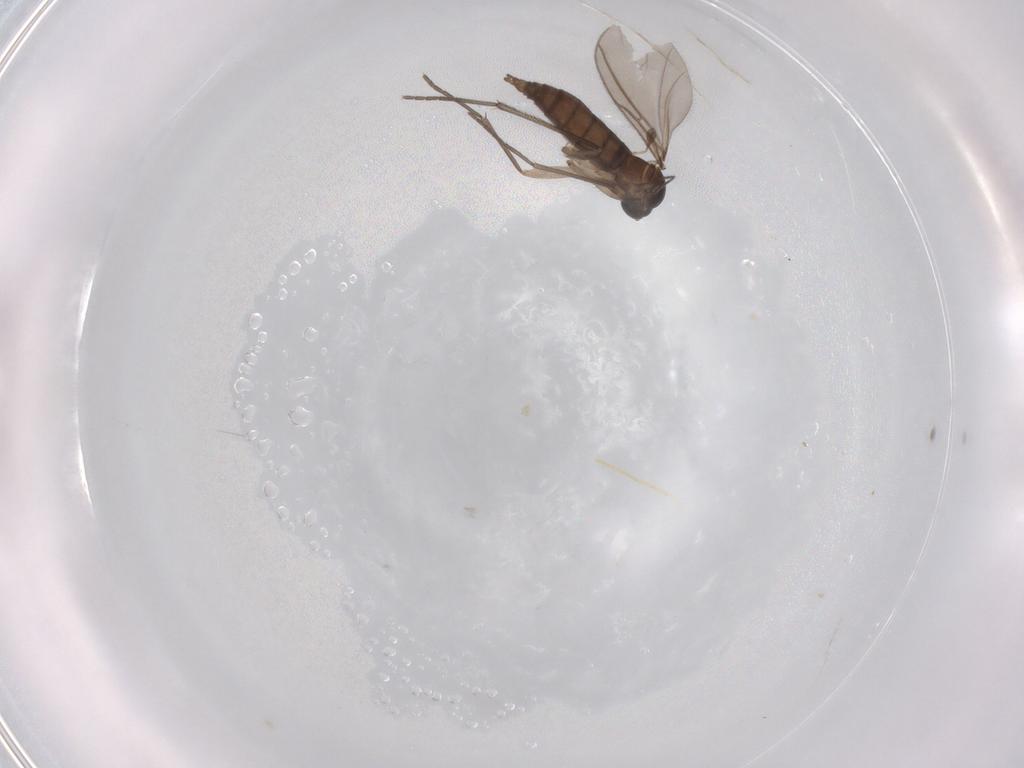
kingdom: Animalia
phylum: Arthropoda
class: Insecta
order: Diptera
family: Sciaridae
